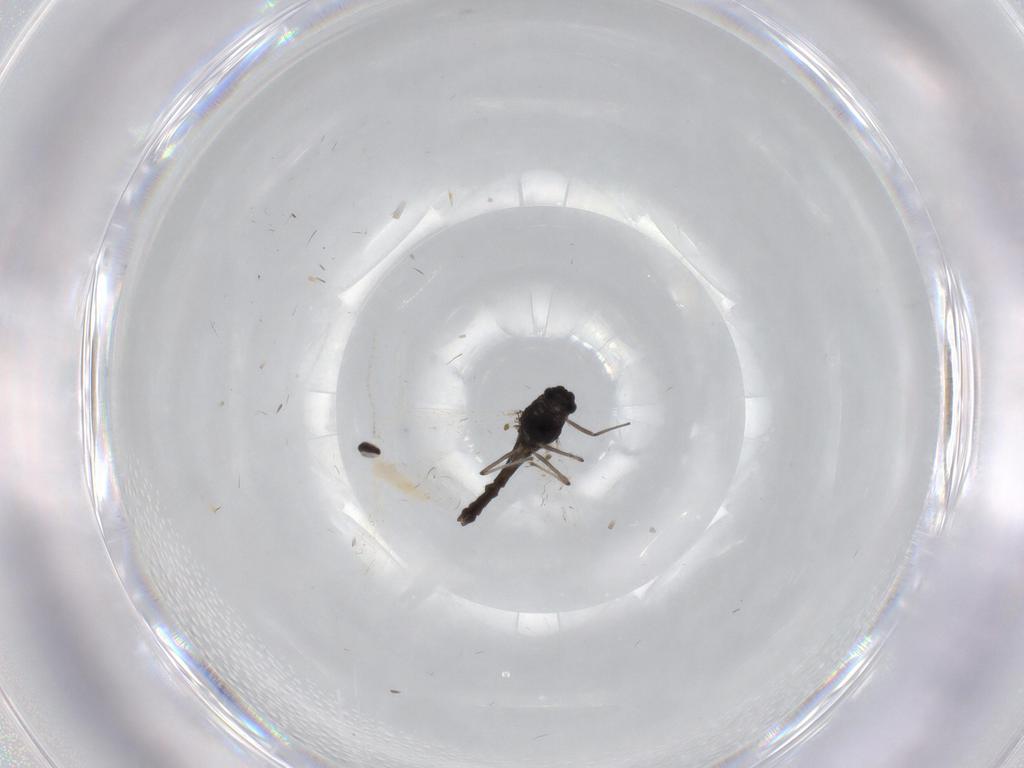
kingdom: Animalia
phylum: Arthropoda
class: Insecta
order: Diptera
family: Chironomidae
